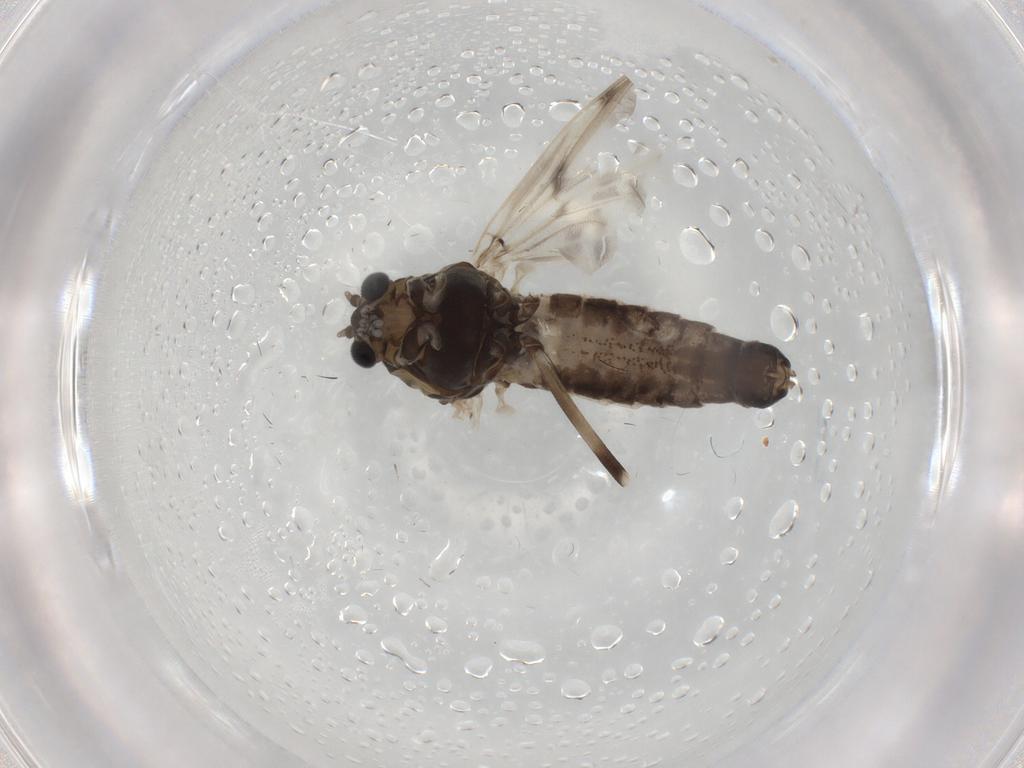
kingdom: Animalia
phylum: Arthropoda
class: Insecta
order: Diptera
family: Chironomidae
